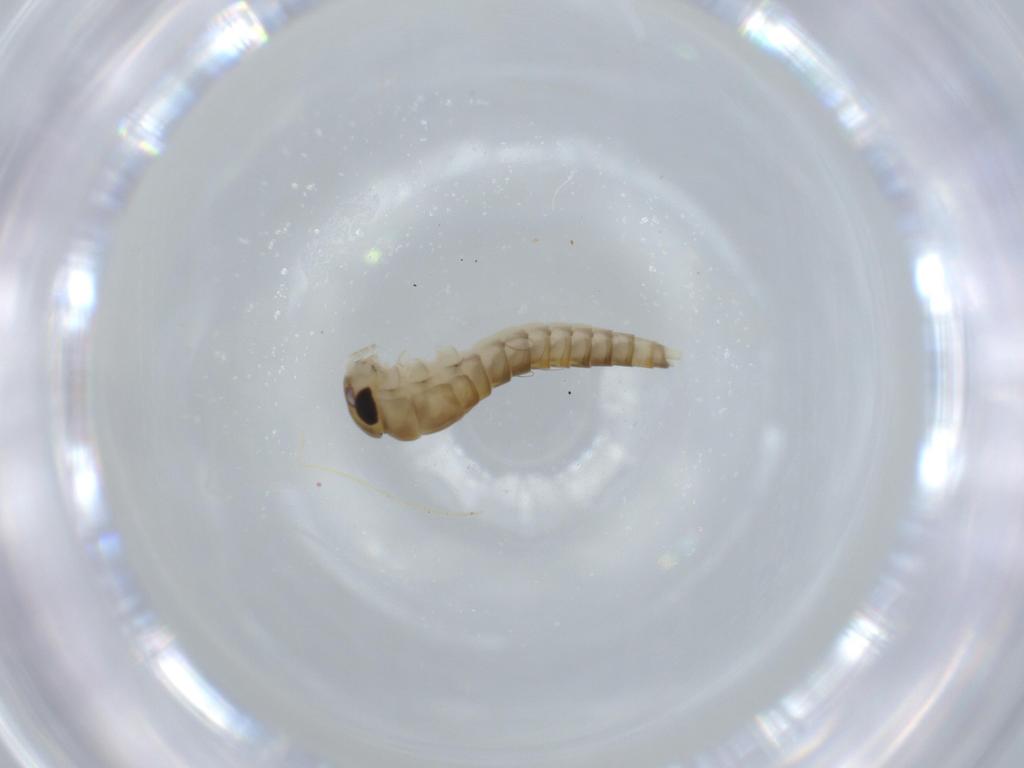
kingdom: Animalia
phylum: Arthropoda
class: Insecta
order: Ephemeroptera
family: Baetidae
